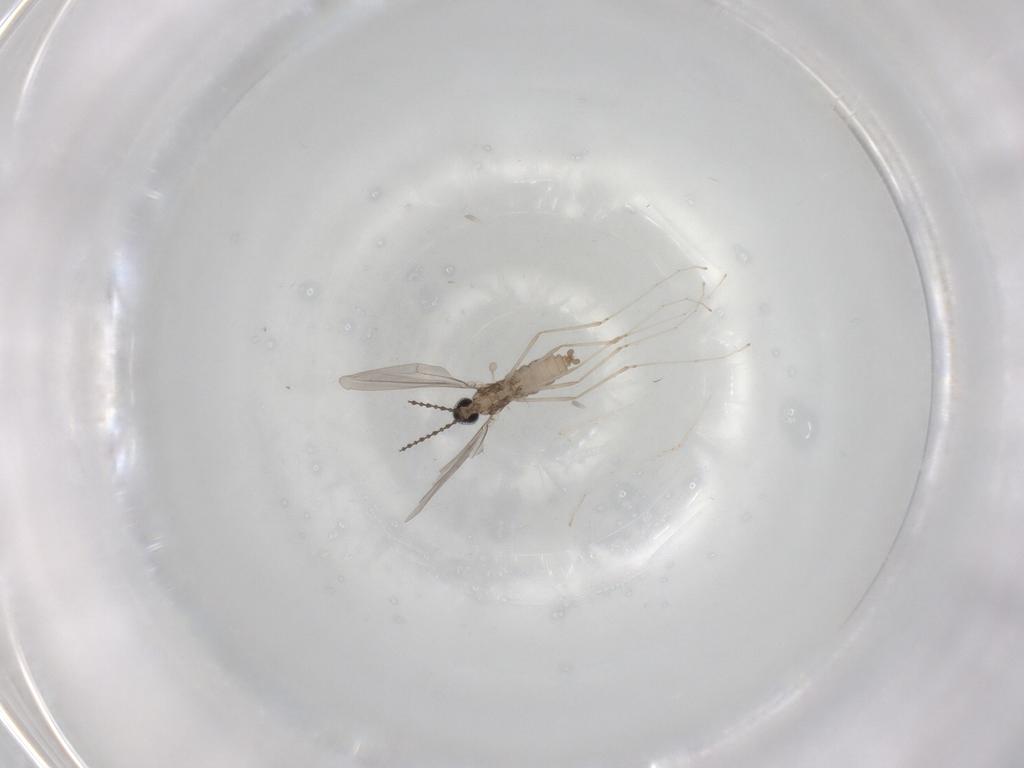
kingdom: Animalia
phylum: Arthropoda
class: Insecta
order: Diptera
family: Cecidomyiidae
